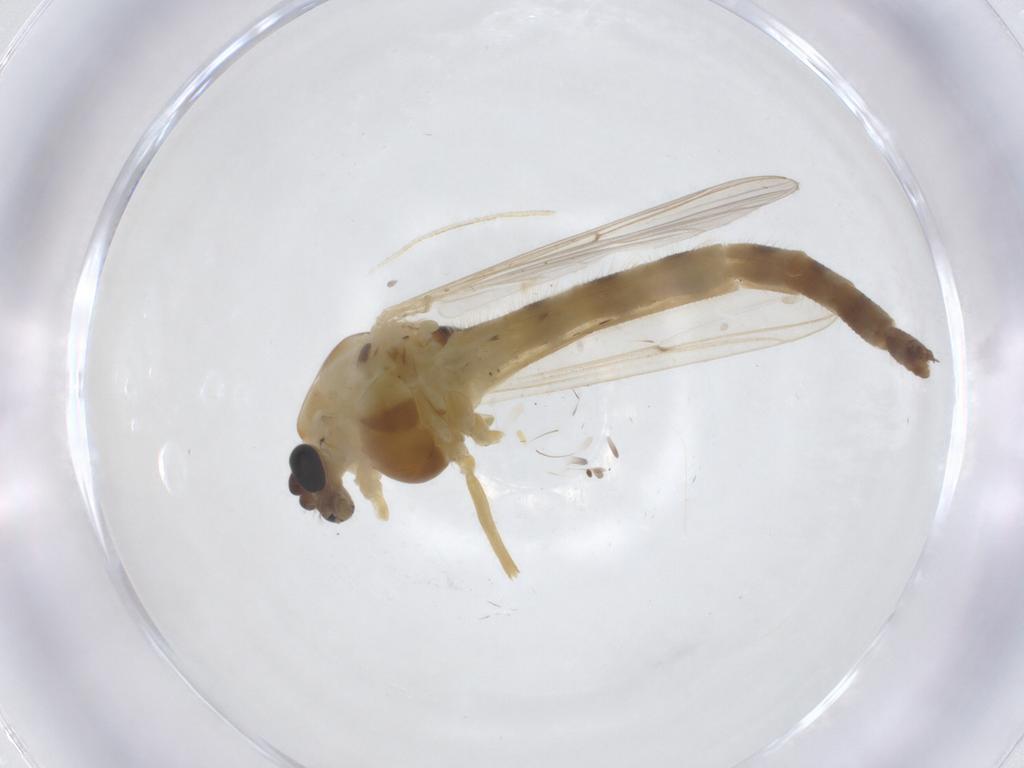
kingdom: Animalia
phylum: Arthropoda
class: Insecta
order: Diptera
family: Chironomidae
